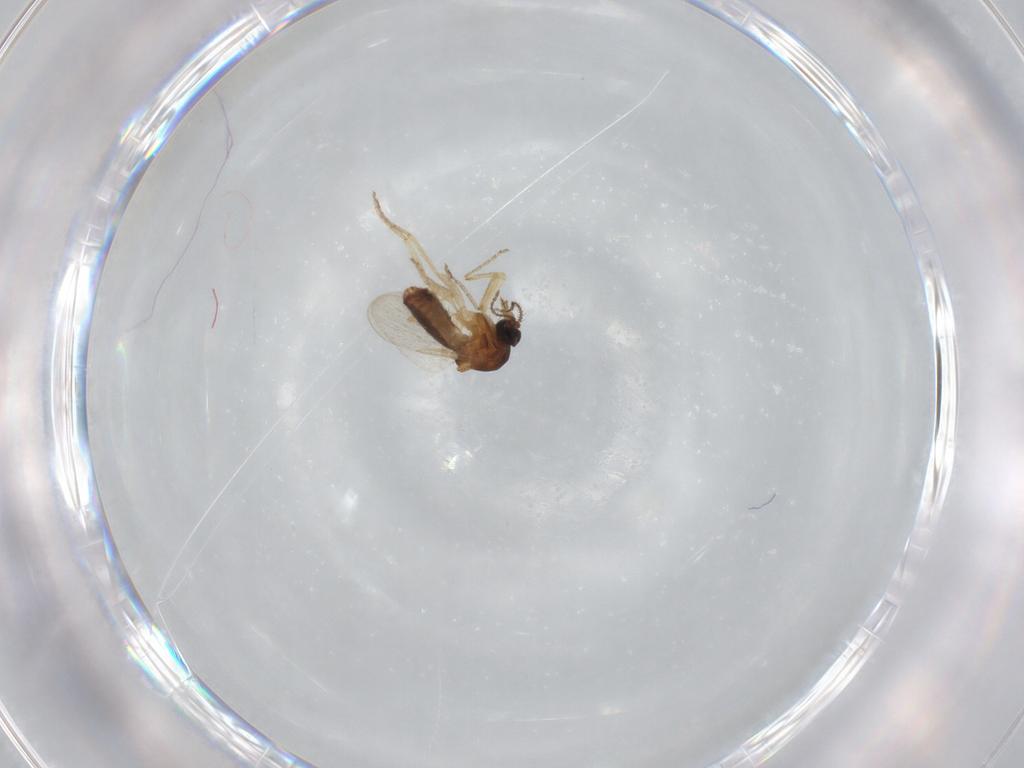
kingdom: Animalia
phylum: Arthropoda
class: Insecta
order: Diptera
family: Ceratopogonidae
